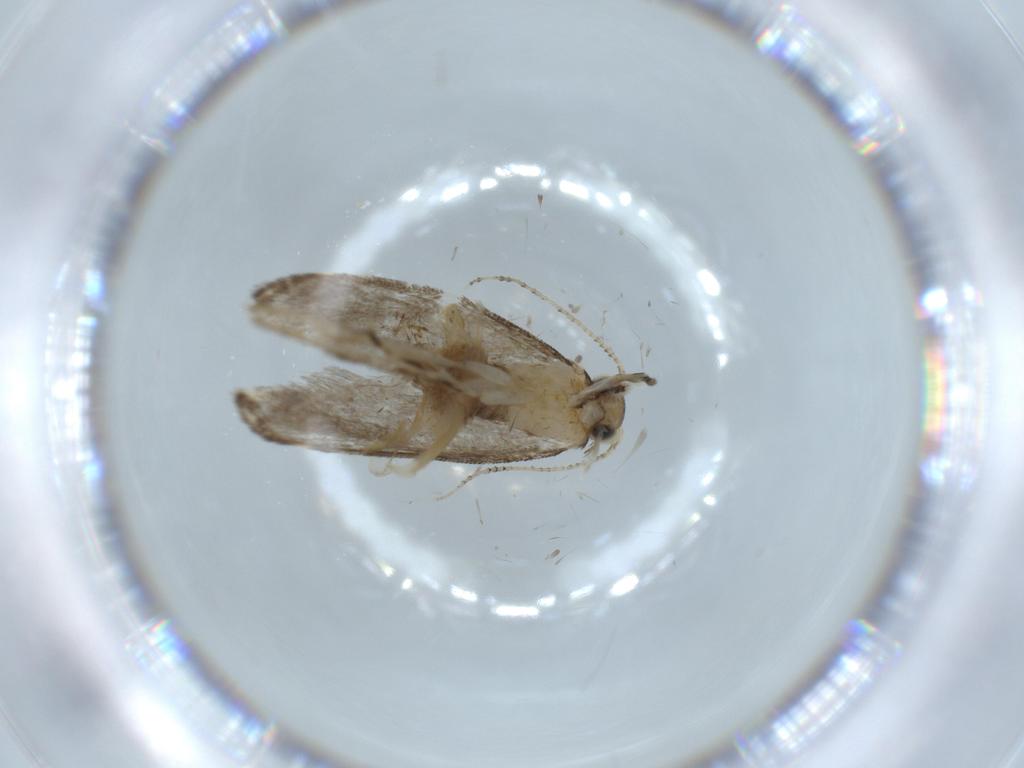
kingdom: Animalia
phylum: Arthropoda
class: Insecta
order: Lepidoptera
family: Tineidae
